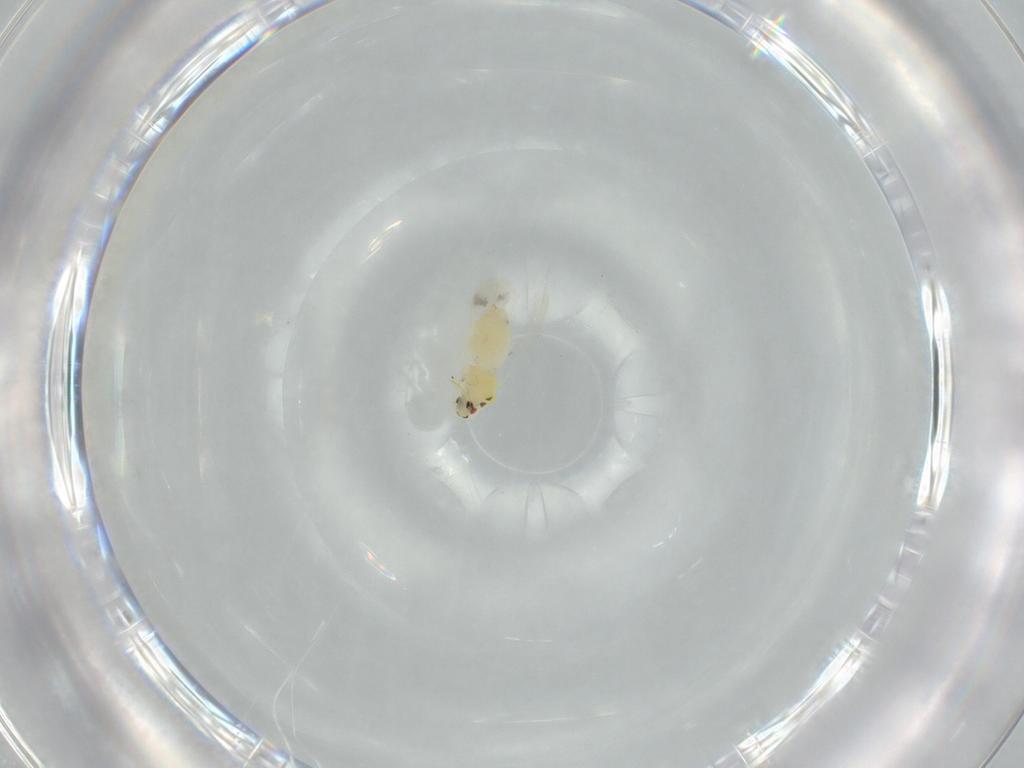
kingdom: Animalia
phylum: Arthropoda
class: Insecta
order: Hemiptera
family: Aleyrodidae
